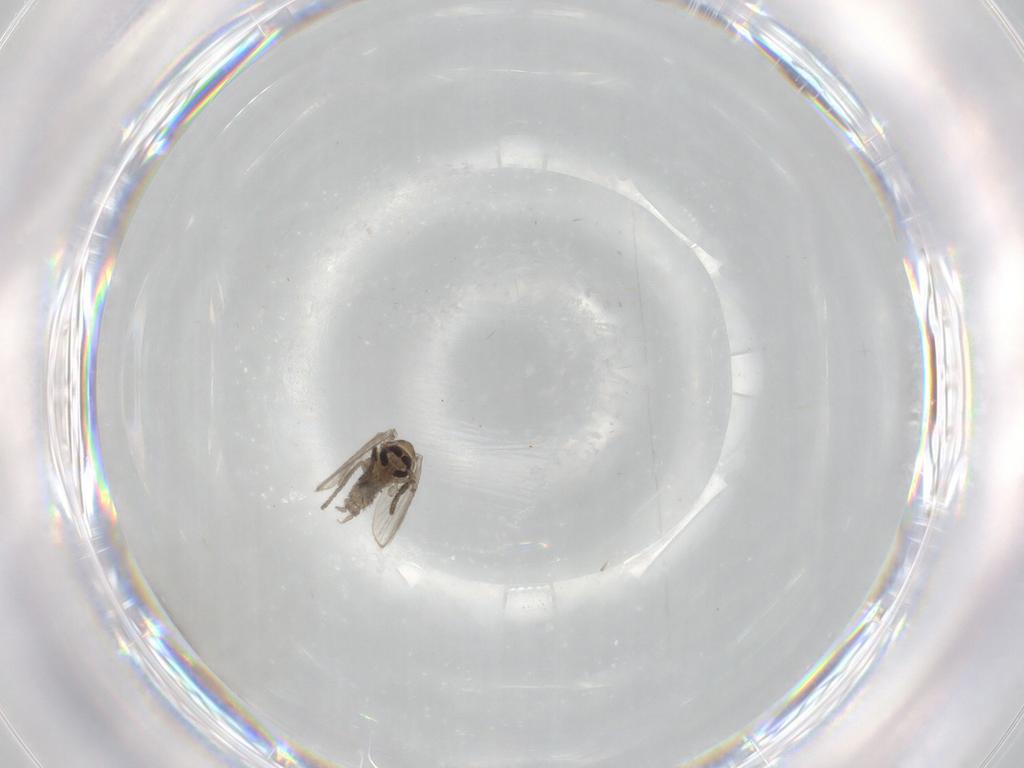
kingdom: Animalia
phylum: Arthropoda
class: Insecta
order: Diptera
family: Psychodidae
